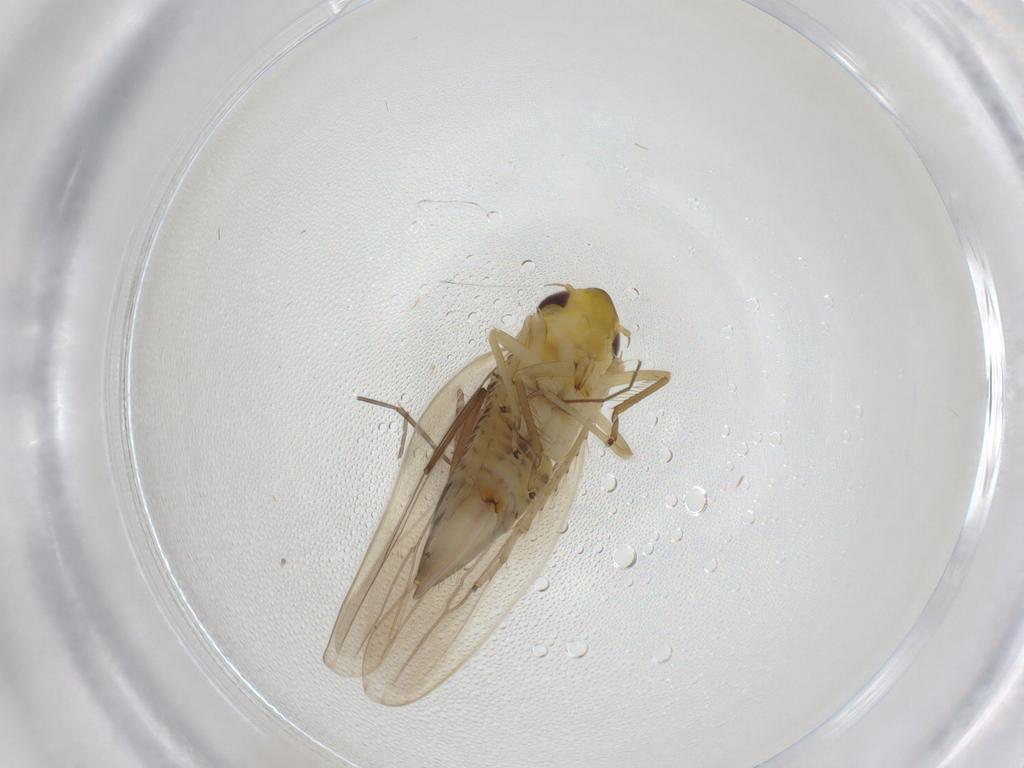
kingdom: Animalia
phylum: Arthropoda
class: Insecta
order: Hemiptera
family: Cicadellidae
